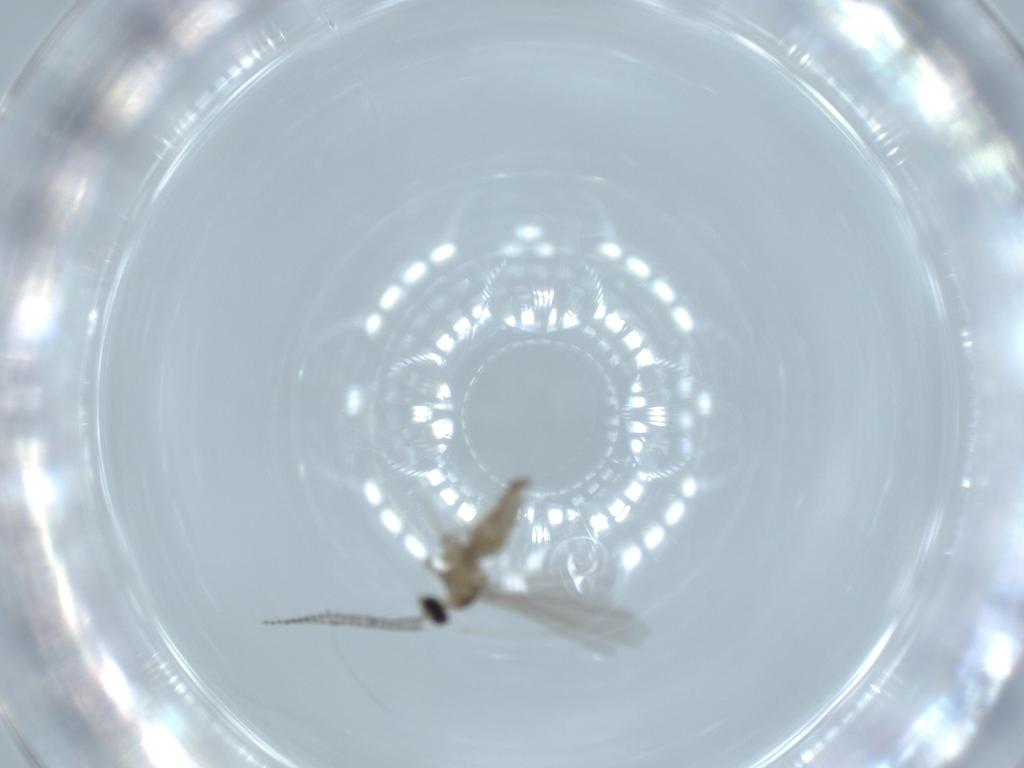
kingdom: Animalia
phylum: Arthropoda
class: Insecta
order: Diptera
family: Cecidomyiidae
